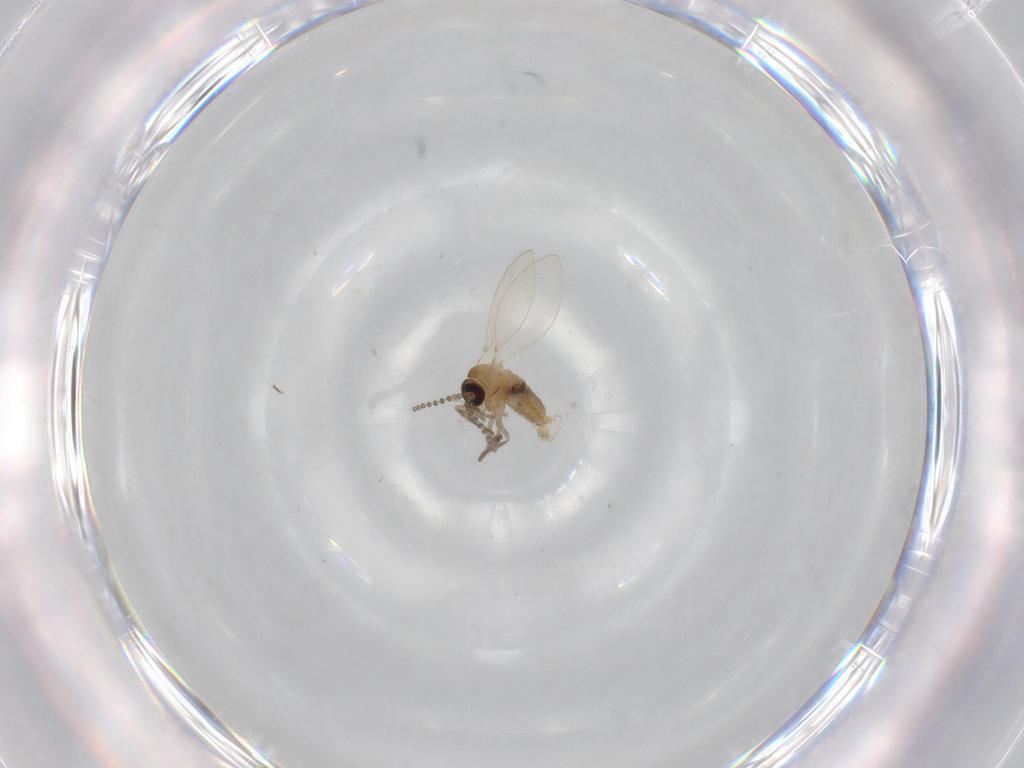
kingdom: Animalia
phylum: Arthropoda
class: Insecta
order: Diptera
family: Psychodidae
